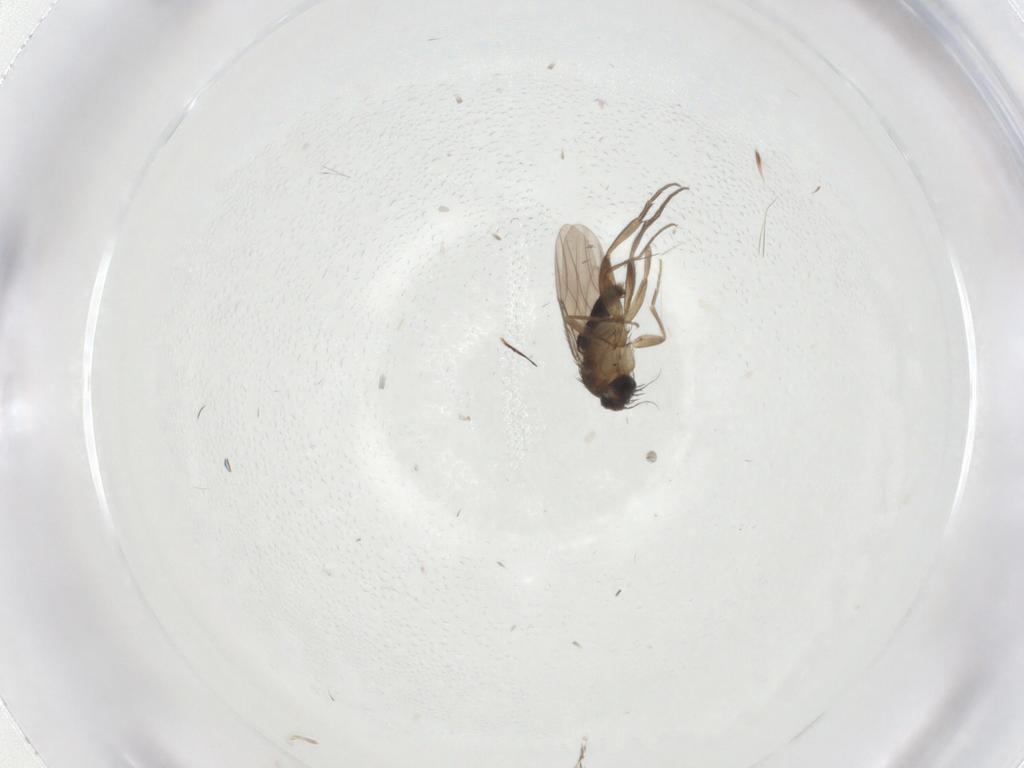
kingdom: Animalia
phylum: Arthropoda
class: Insecta
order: Diptera
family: Phoridae
